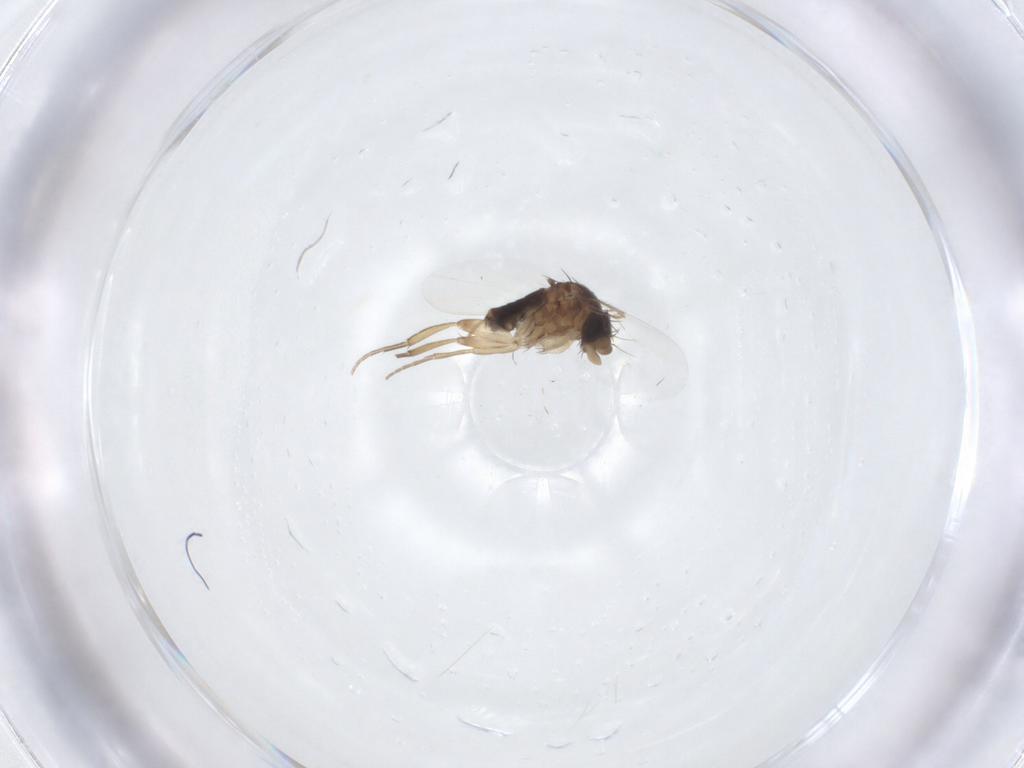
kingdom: Animalia
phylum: Arthropoda
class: Insecta
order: Diptera
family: Phoridae
